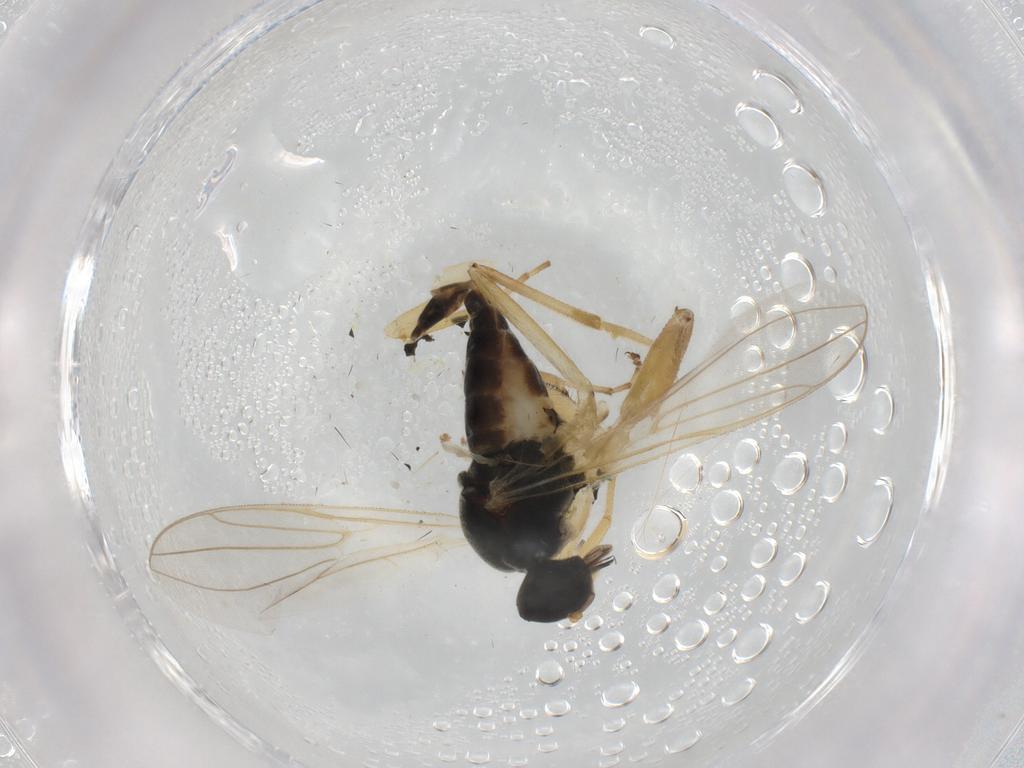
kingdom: Animalia
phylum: Arthropoda
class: Insecta
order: Diptera
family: Hybotidae
